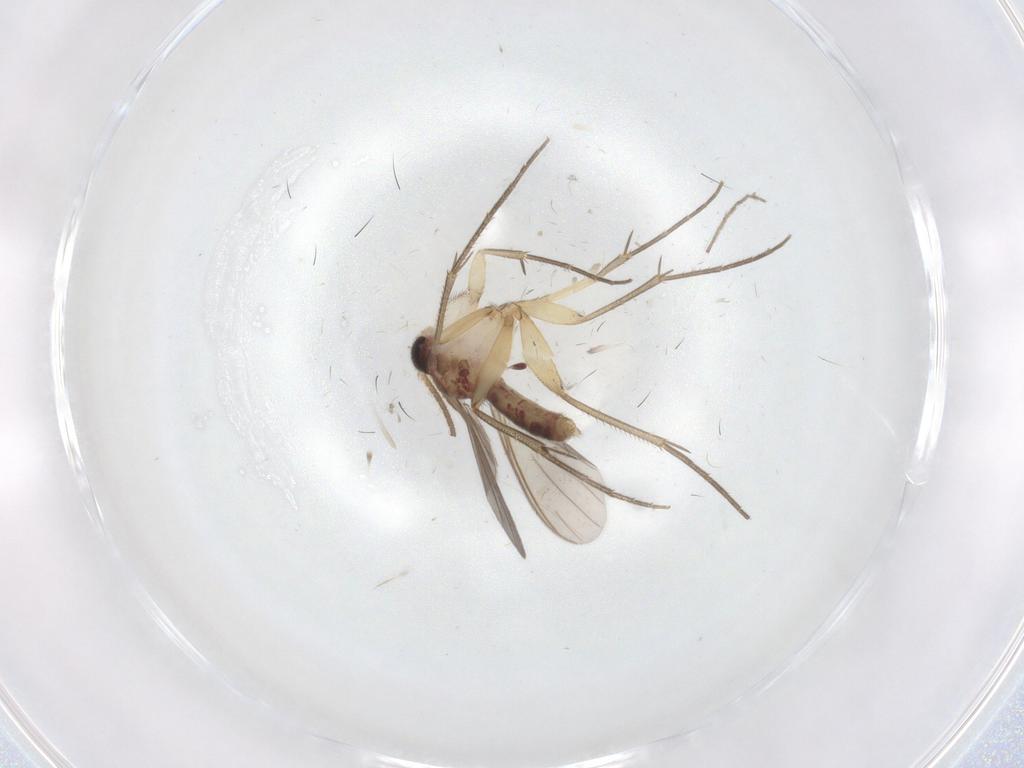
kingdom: Animalia
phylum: Arthropoda
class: Insecta
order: Diptera
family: Mycetophilidae
